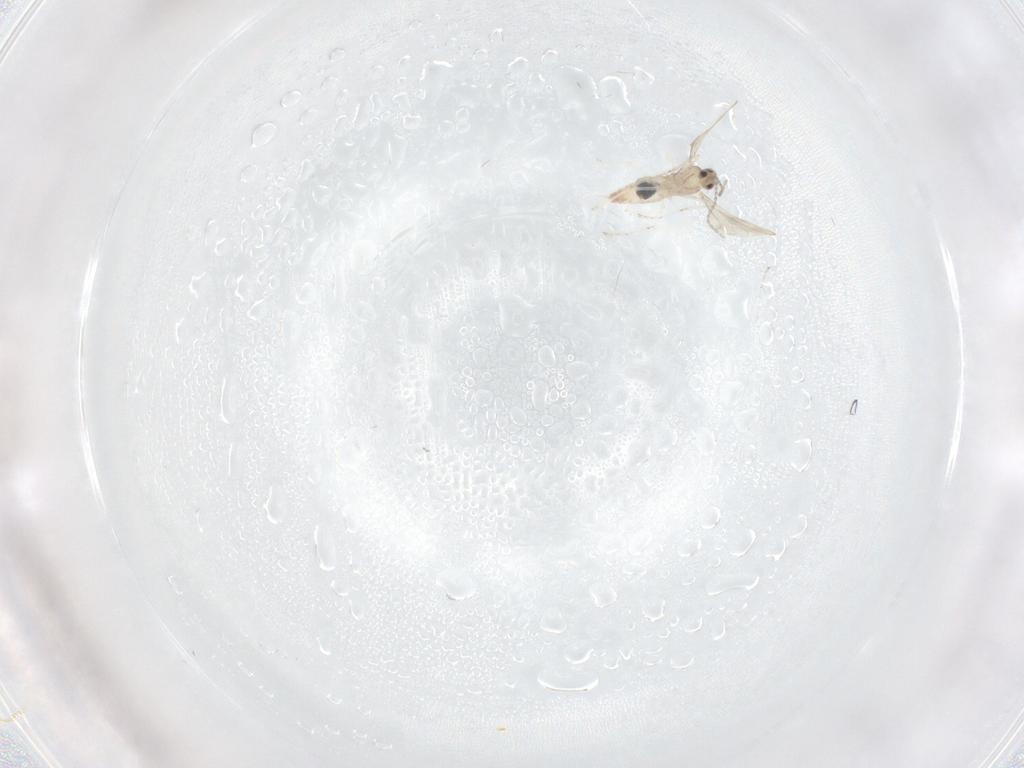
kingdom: Animalia
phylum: Arthropoda
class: Insecta
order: Diptera
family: Cecidomyiidae
